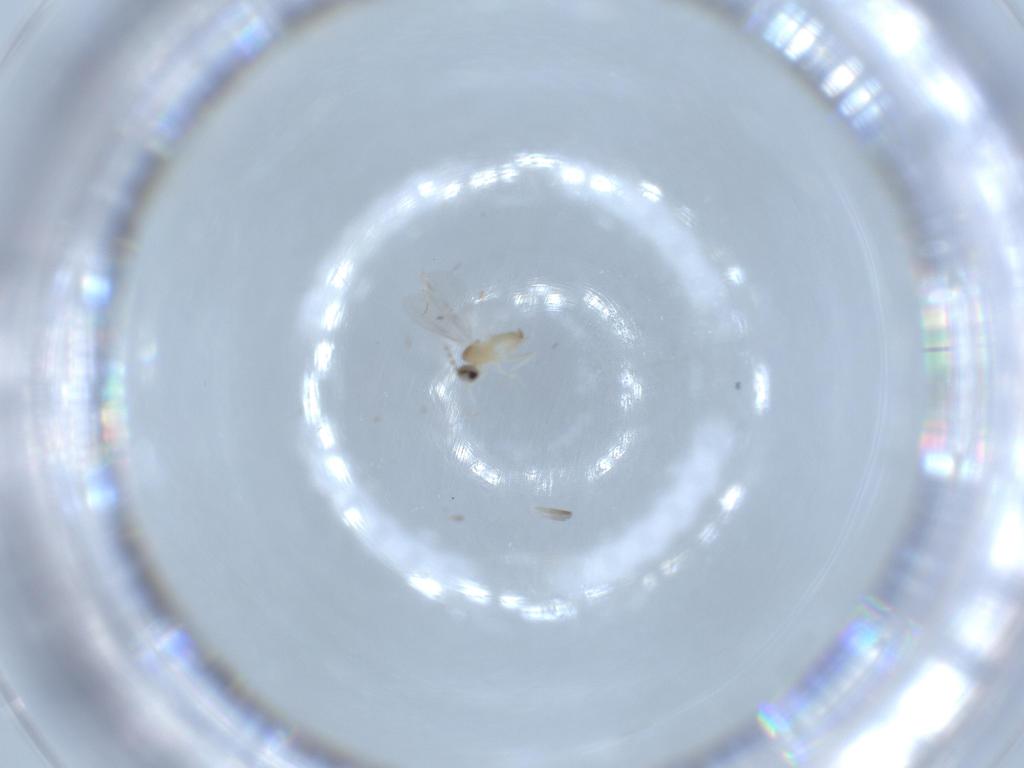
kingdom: Animalia
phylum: Arthropoda
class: Insecta
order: Diptera
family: Cecidomyiidae
